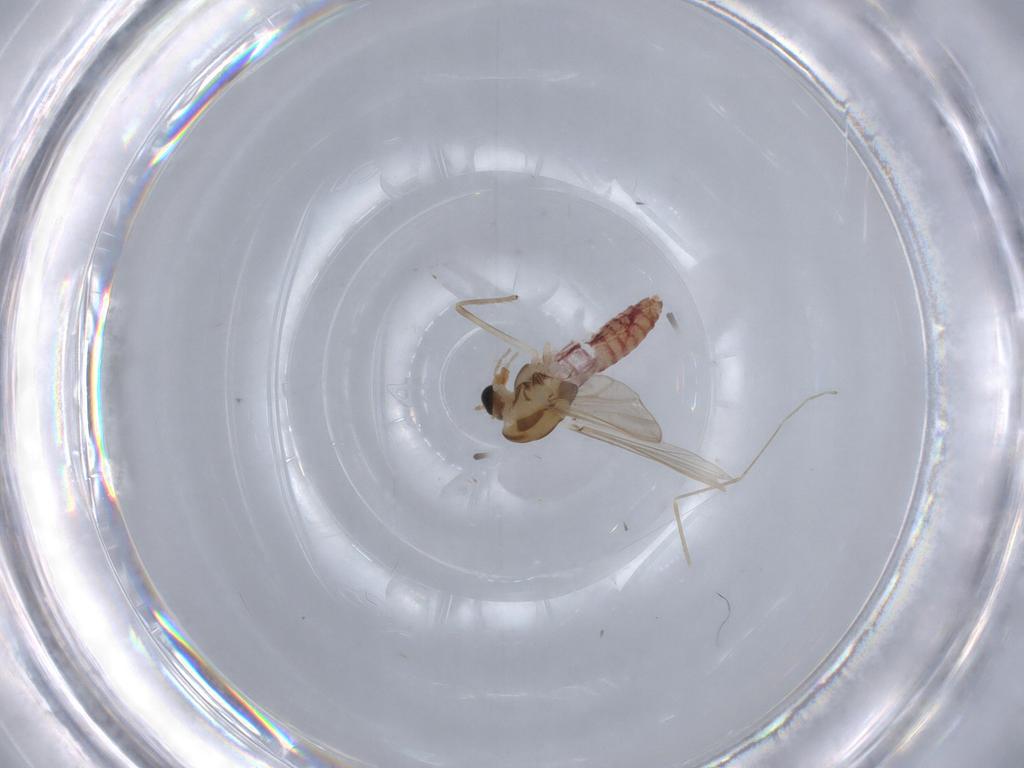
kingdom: Animalia
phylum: Arthropoda
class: Insecta
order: Diptera
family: Chironomidae
